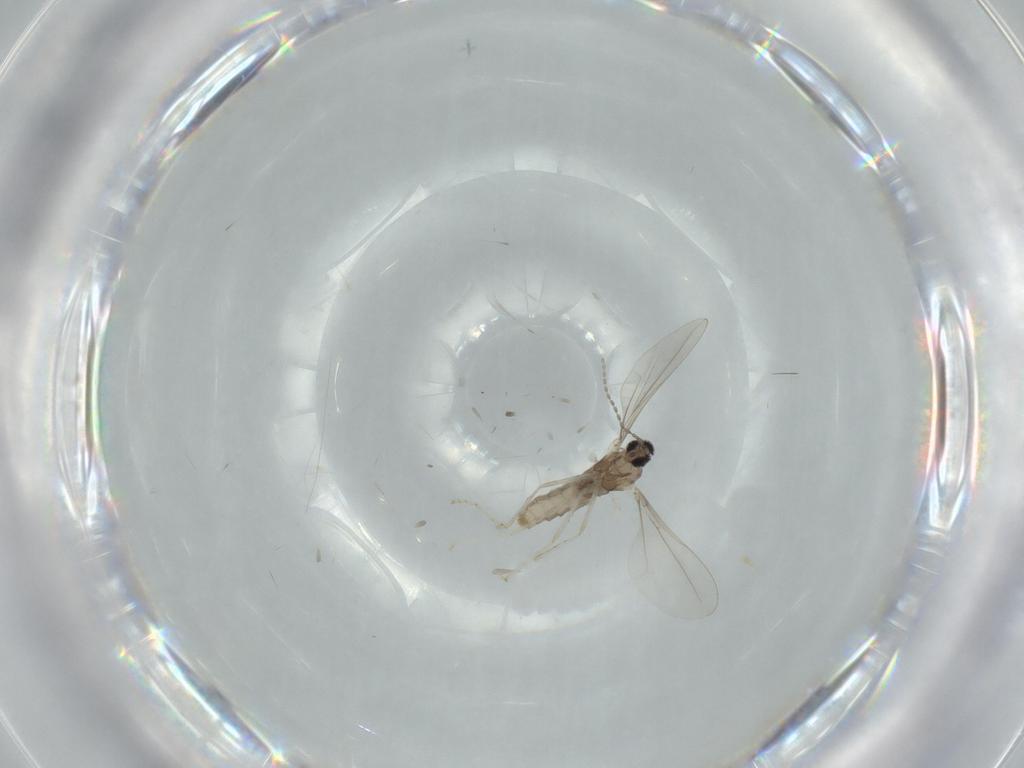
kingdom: Animalia
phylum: Arthropoda
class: Insecta
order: Diptera
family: Cecidomyiidae
